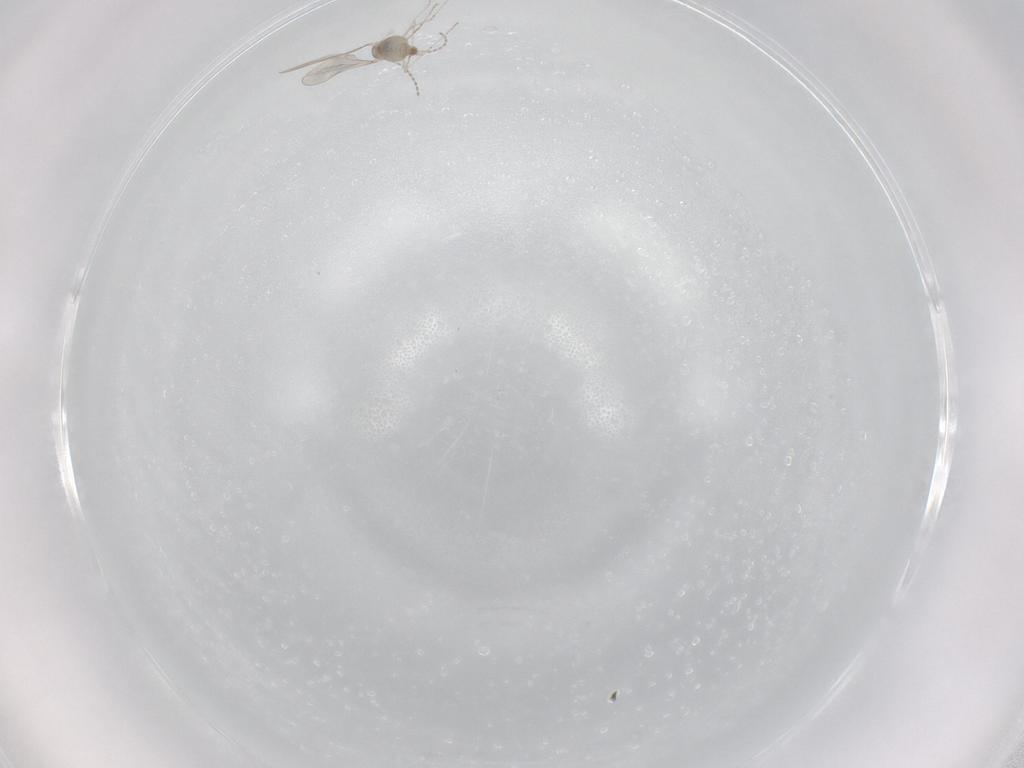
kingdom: Animalia
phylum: Arthropoda
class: Insecta
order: Diptera
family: Cecidomyiidae
